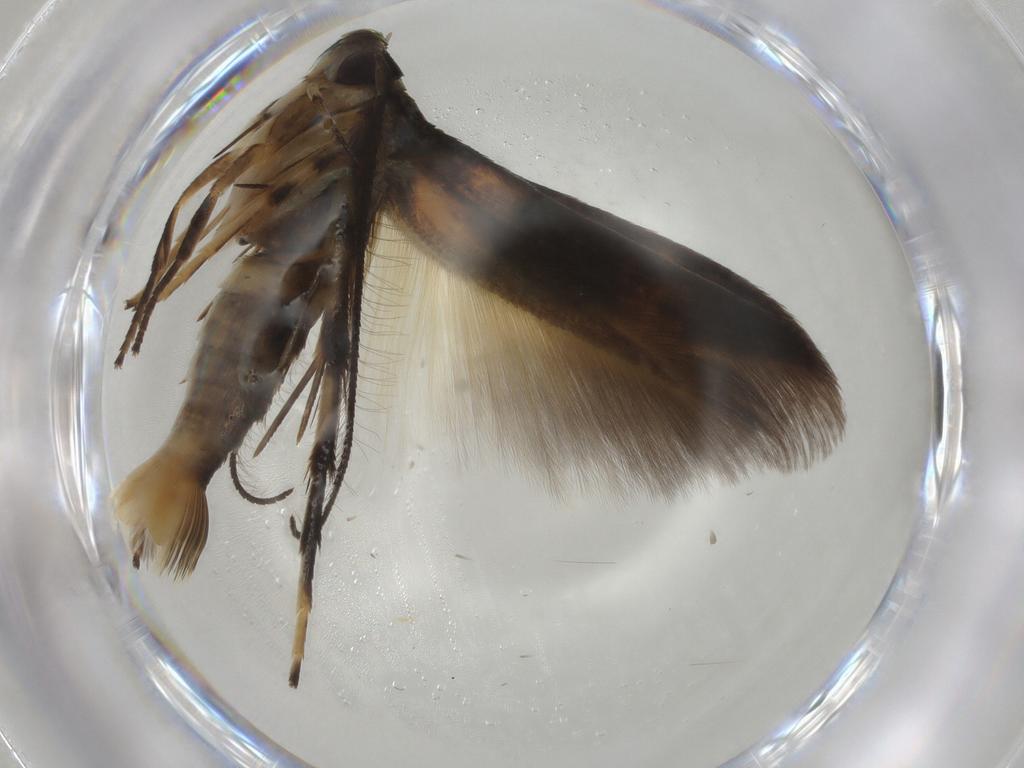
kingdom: Animalia
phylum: Arthropoda
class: Insecta
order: Lepidoptera
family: Stathmopodidae
